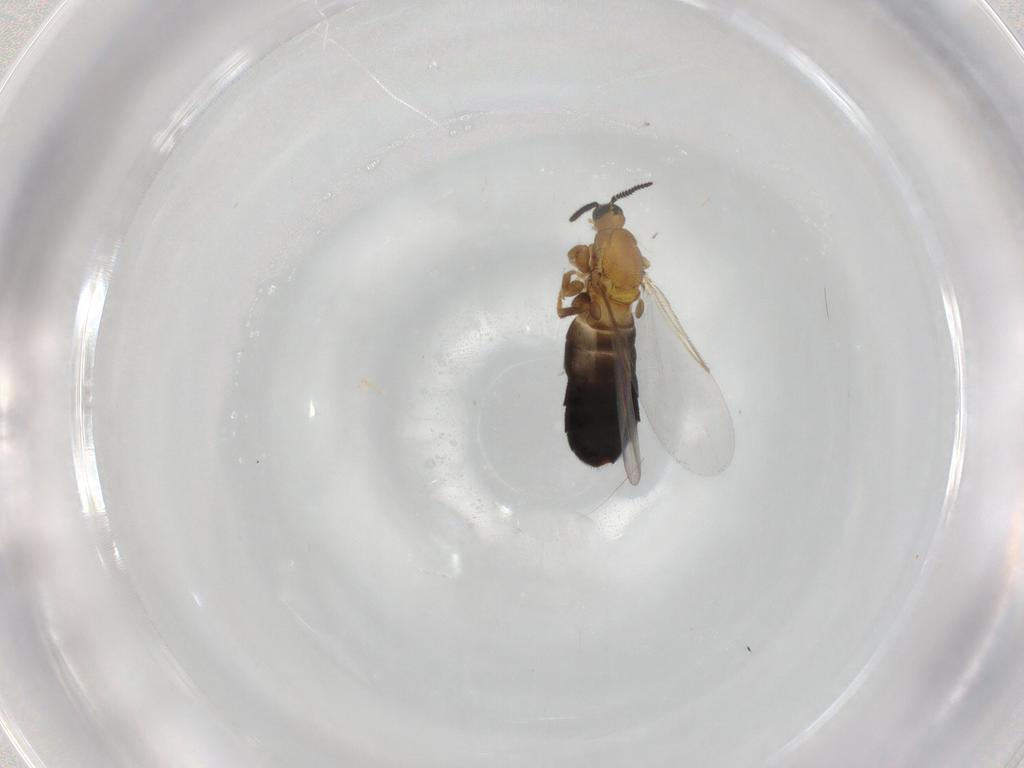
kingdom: Animalia
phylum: Arthropoda
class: Insecta
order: Diptera
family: Scatopsidae
